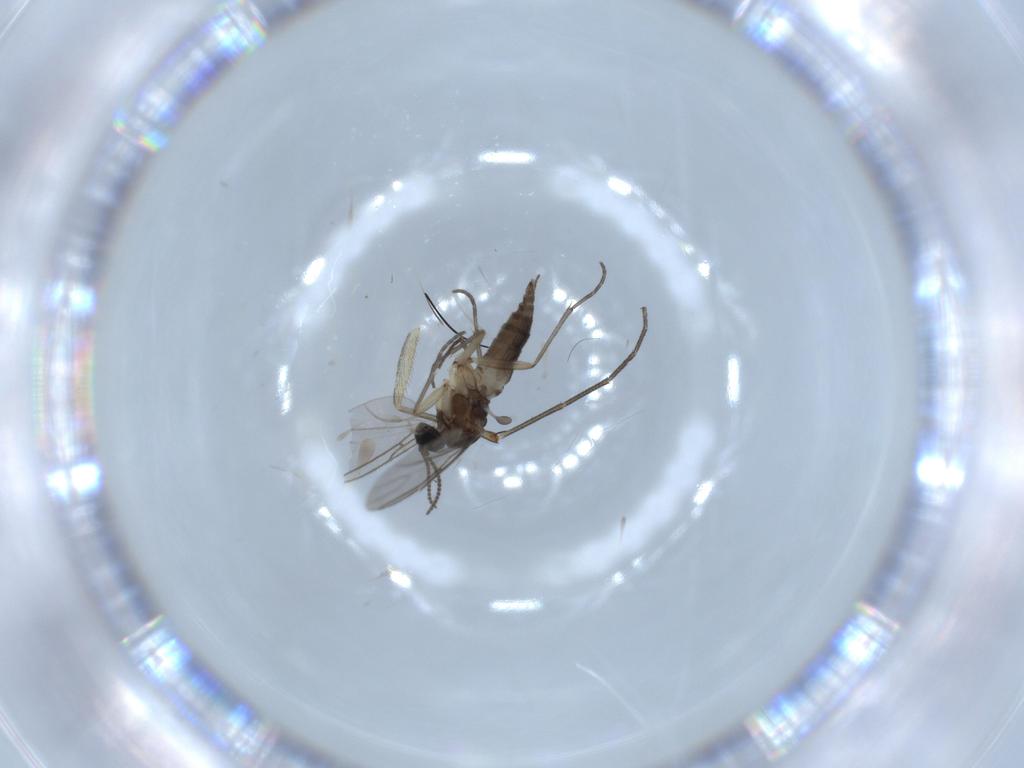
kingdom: Animalia
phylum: Arthropoda
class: Insecta
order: Diptera
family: Sciaridae
